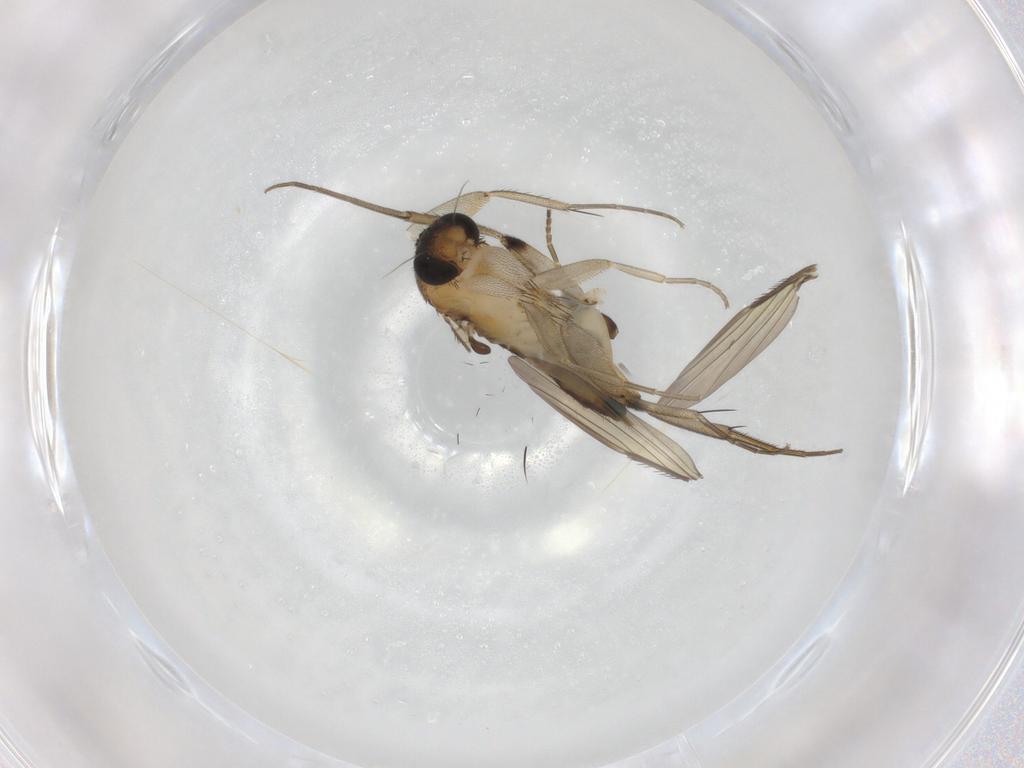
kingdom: Animalia
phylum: Arthropoda
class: Insecta
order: Diptera
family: Phoridae
